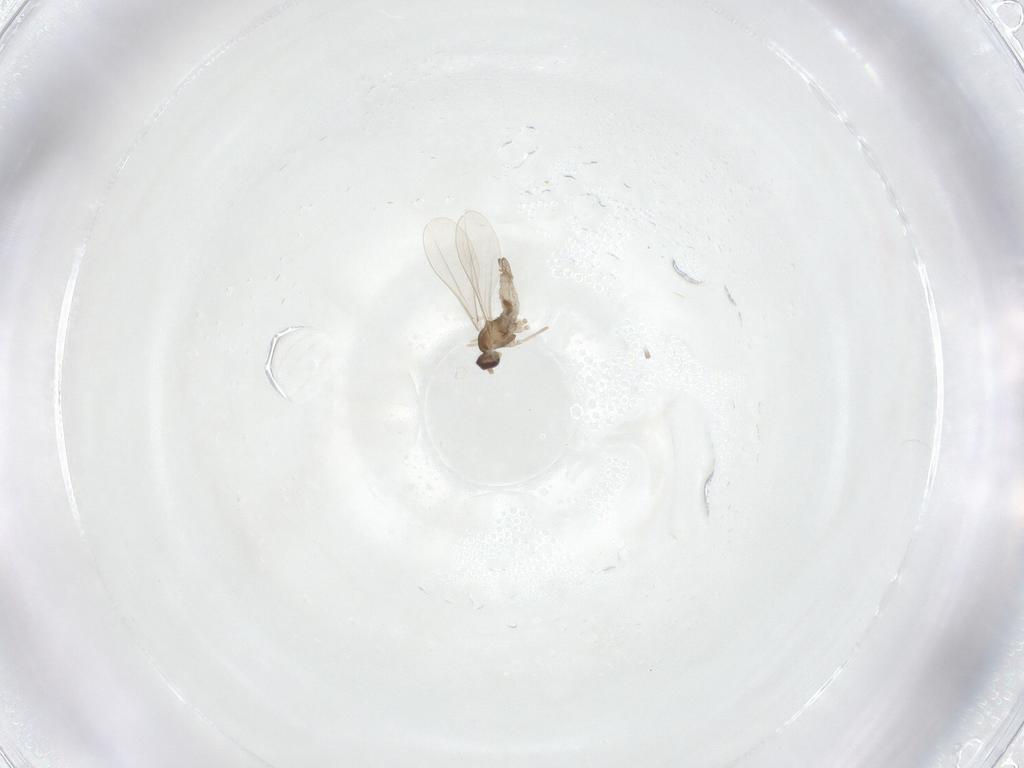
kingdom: Animalia
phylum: Arthropoda
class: Insecta
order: Diptera
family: Cecidomyiidae
